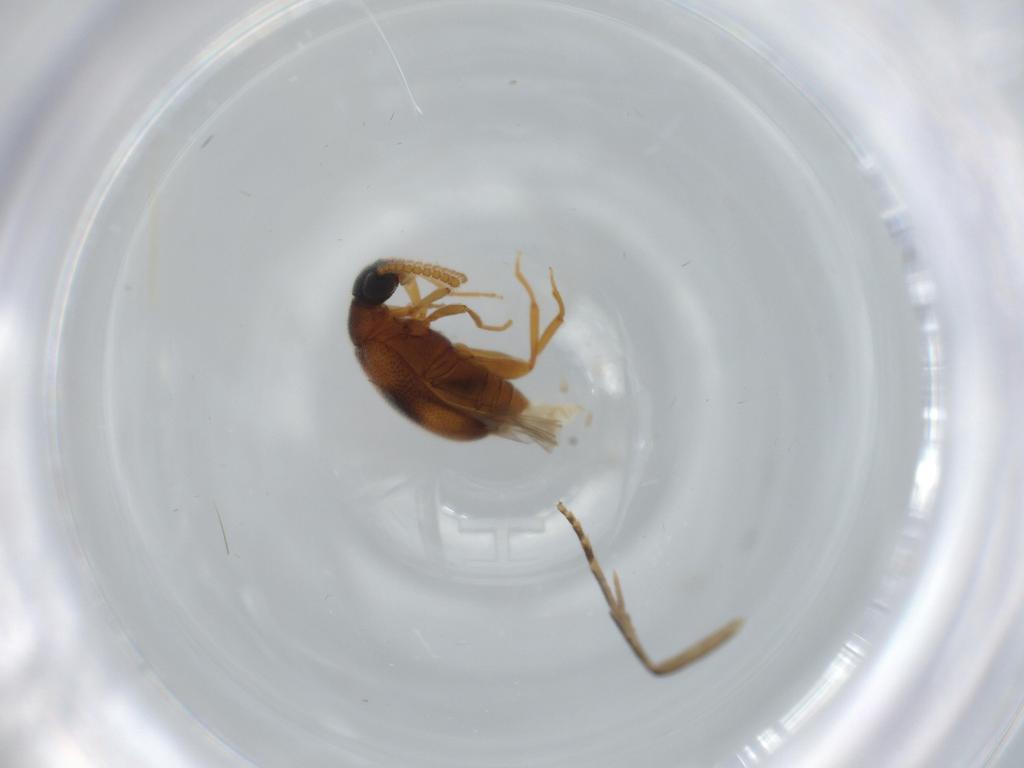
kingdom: Animalia
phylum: Arthropoda
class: Insecta
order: Coleoptera
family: Aderidae
